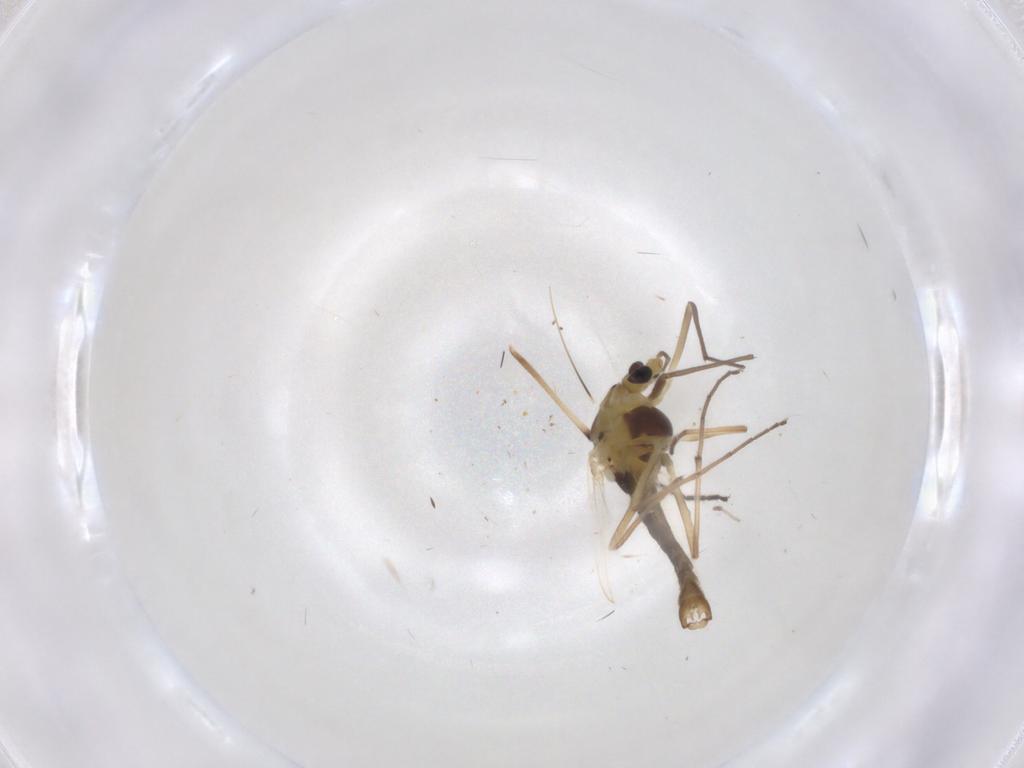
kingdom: Animalia
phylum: Arthropoda
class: Insecta
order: Diptera
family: Chironomidae
